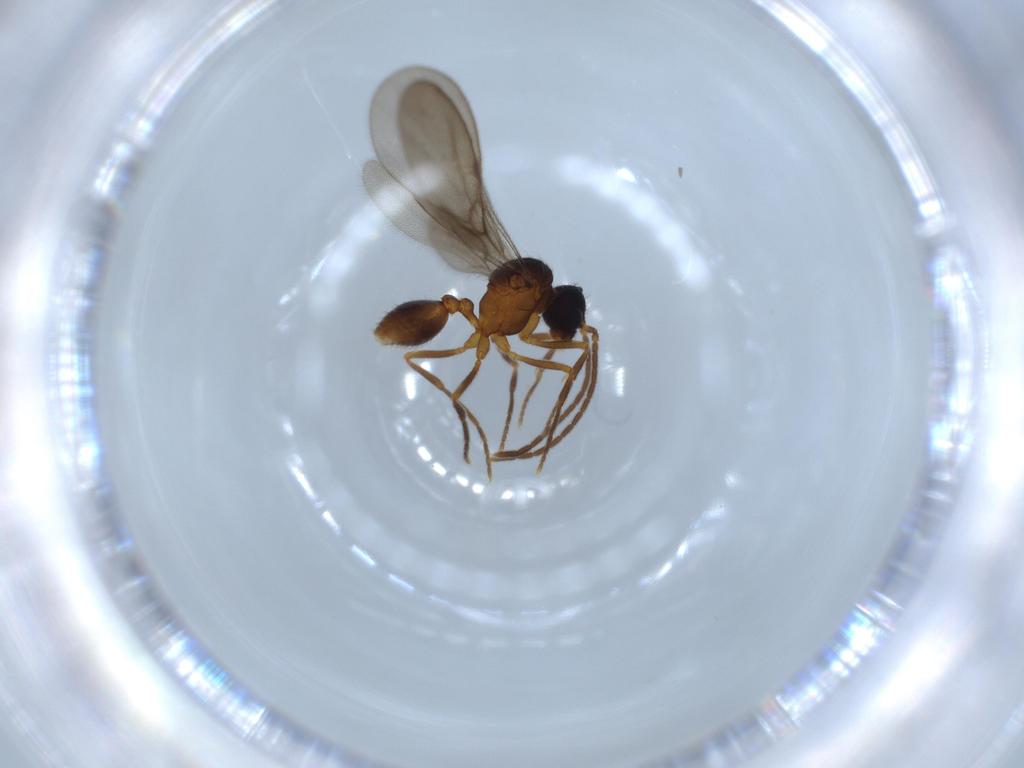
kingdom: Animalia
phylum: Arthropoda
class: Insecta
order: Hymenoptera
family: Formicidae
